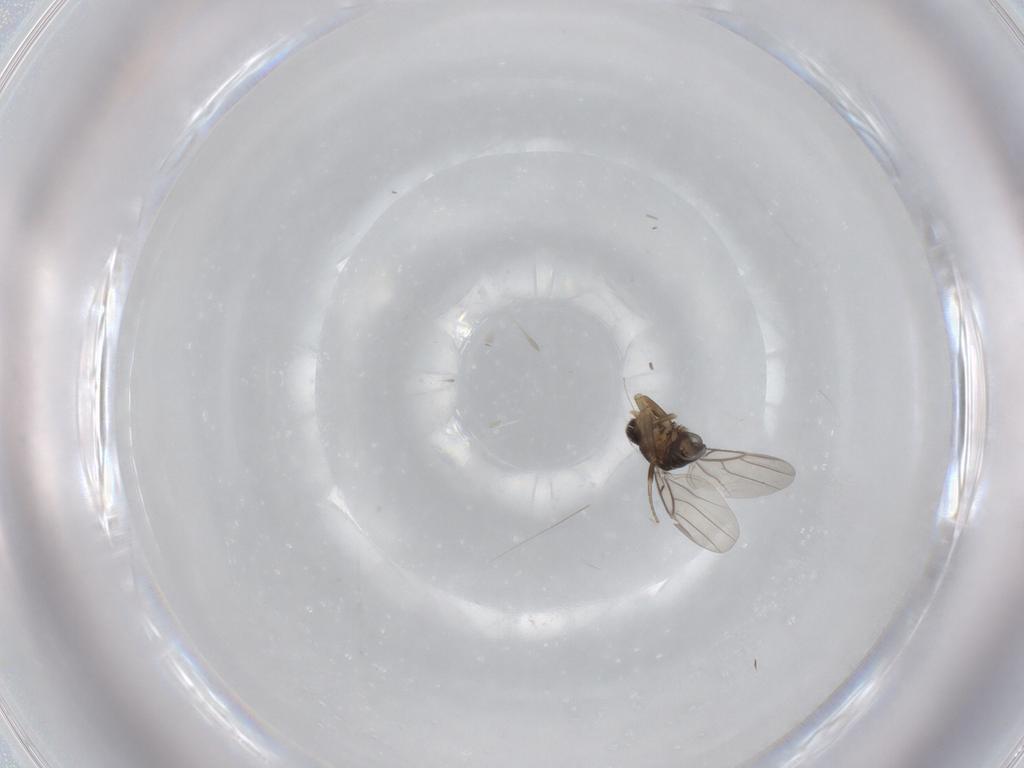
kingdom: Animalia
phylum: Arthropoda
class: Insecta
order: Diptera
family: Phoridae
